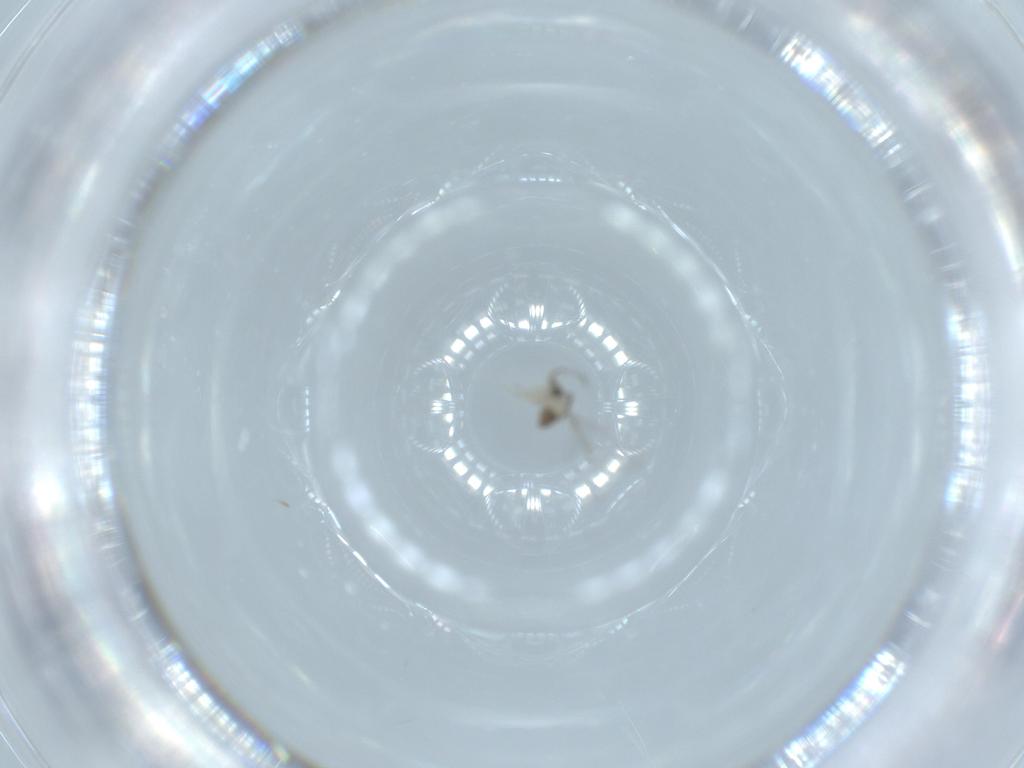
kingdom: Animalia
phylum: Arthropoda
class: Insecta
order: Diptera
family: Cecidomyiidae
